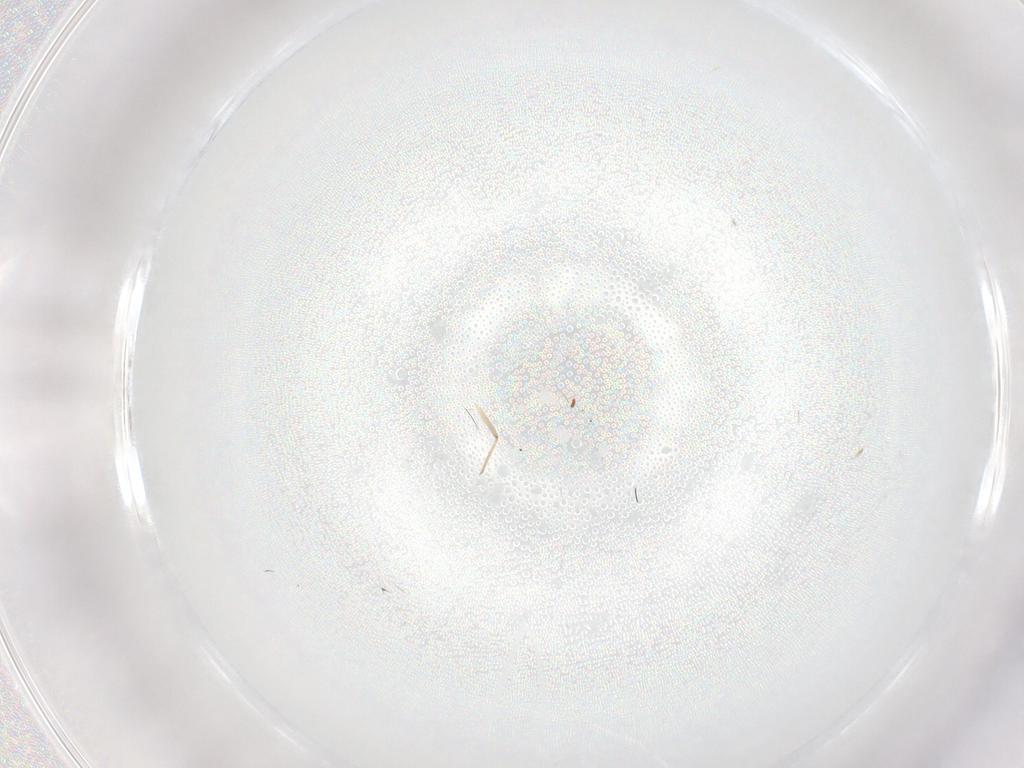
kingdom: Animalia
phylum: Arthropoda
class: Insecta
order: Diptera
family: Psychodidae
